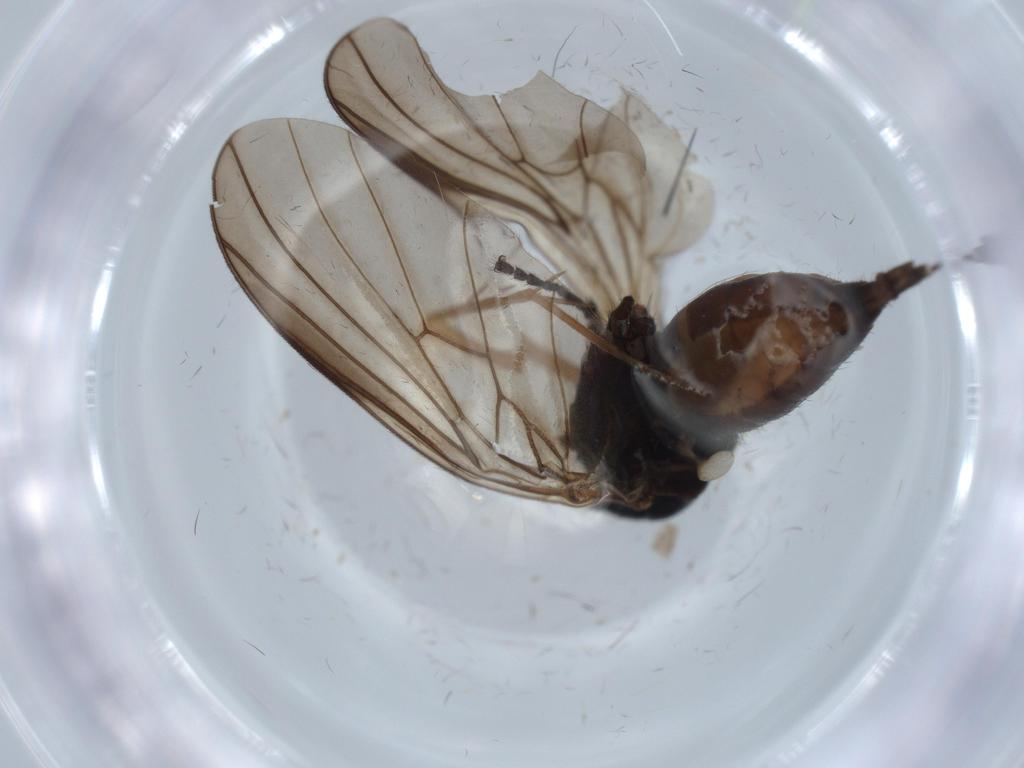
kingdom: Animalia
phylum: Arthropoda
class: Insecta
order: Diptera
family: Empididae
